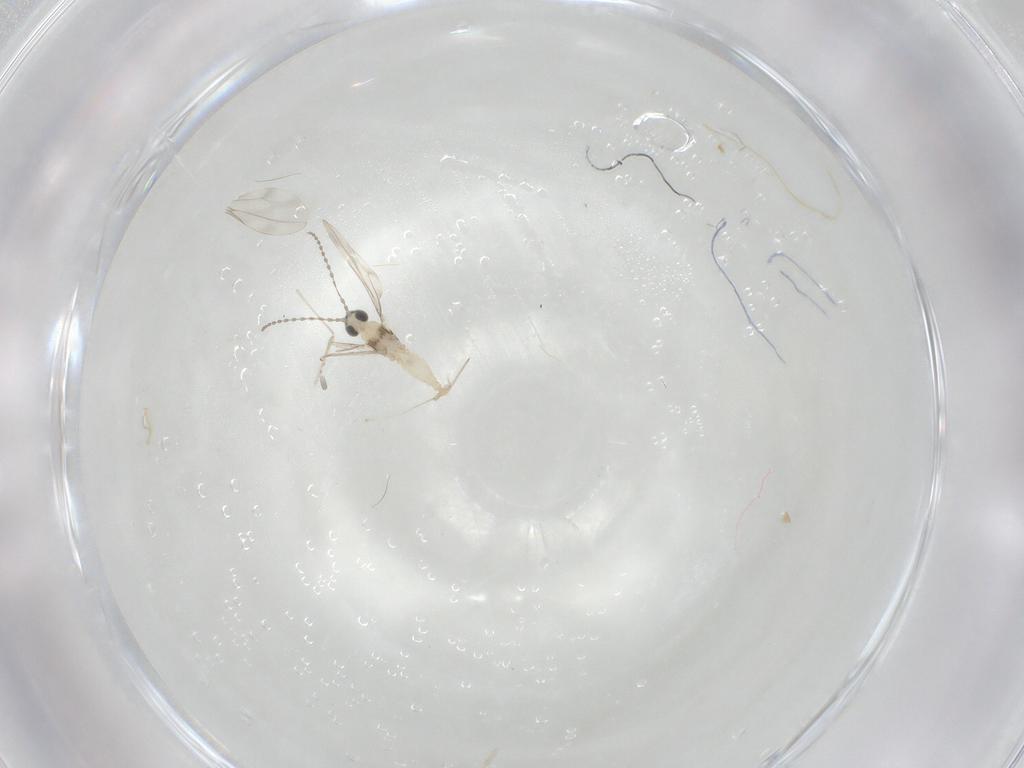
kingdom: Animalia
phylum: Arthropoda
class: Insecta
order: Diptera
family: Cecidomyiidae
